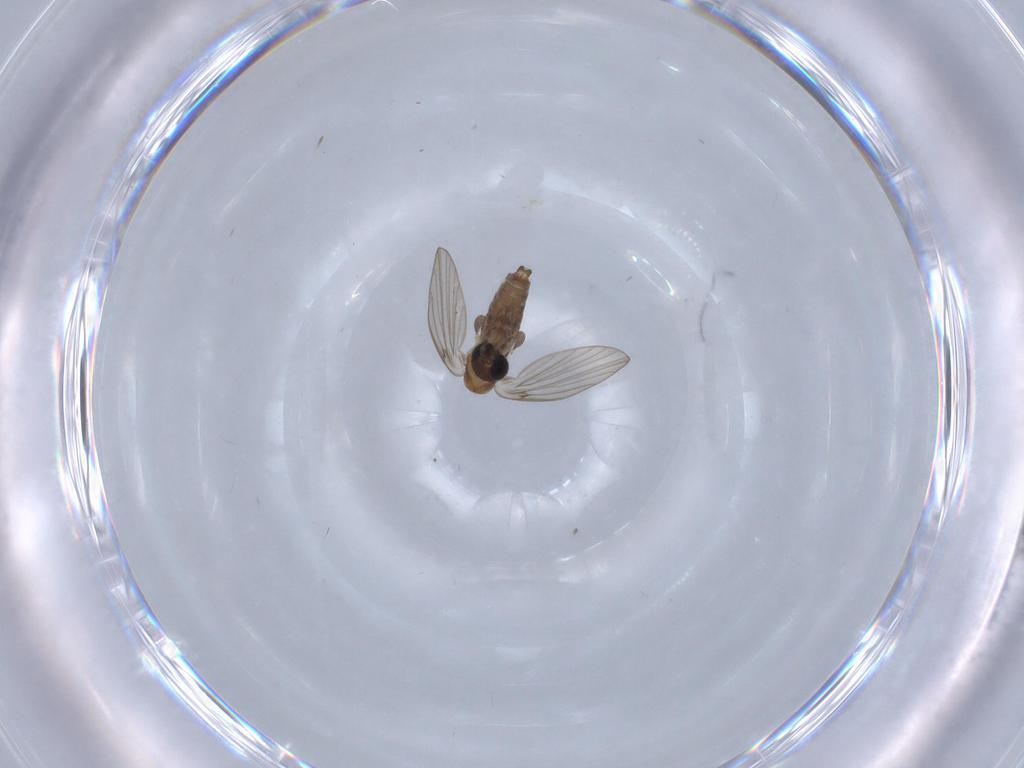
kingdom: Animalia
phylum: Arthropoda
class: Insecta
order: Diptera
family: Psychodidae
